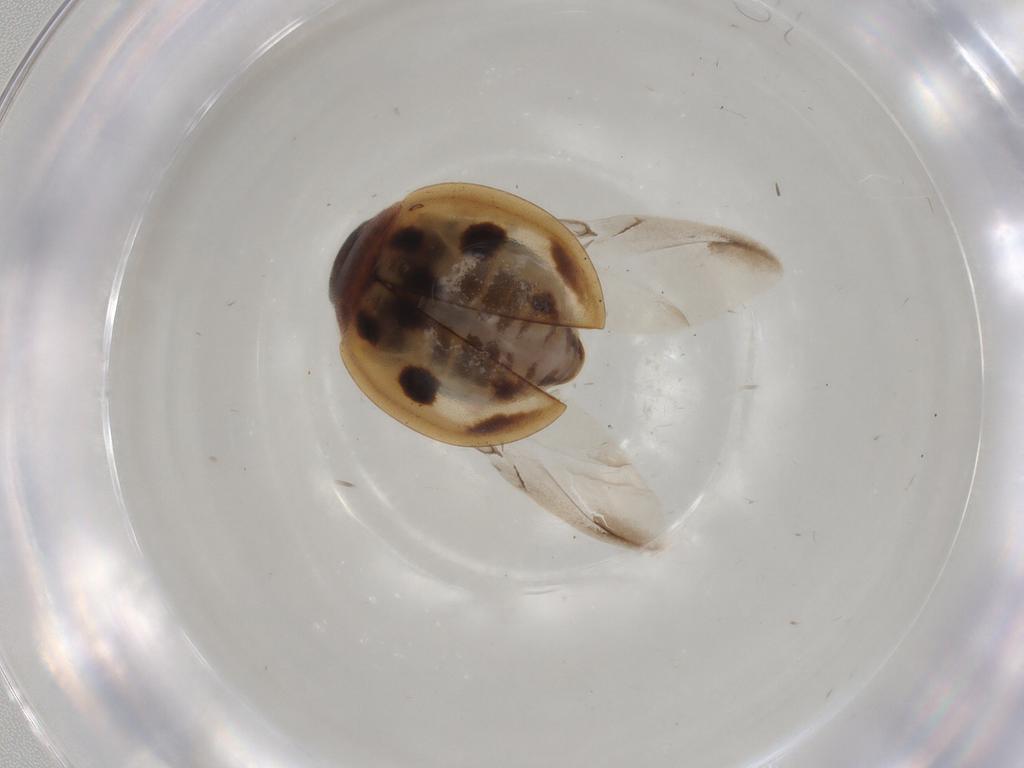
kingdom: Animalia
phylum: Arthropoda
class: Insecta
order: Coleoptera
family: Coccinellidae
